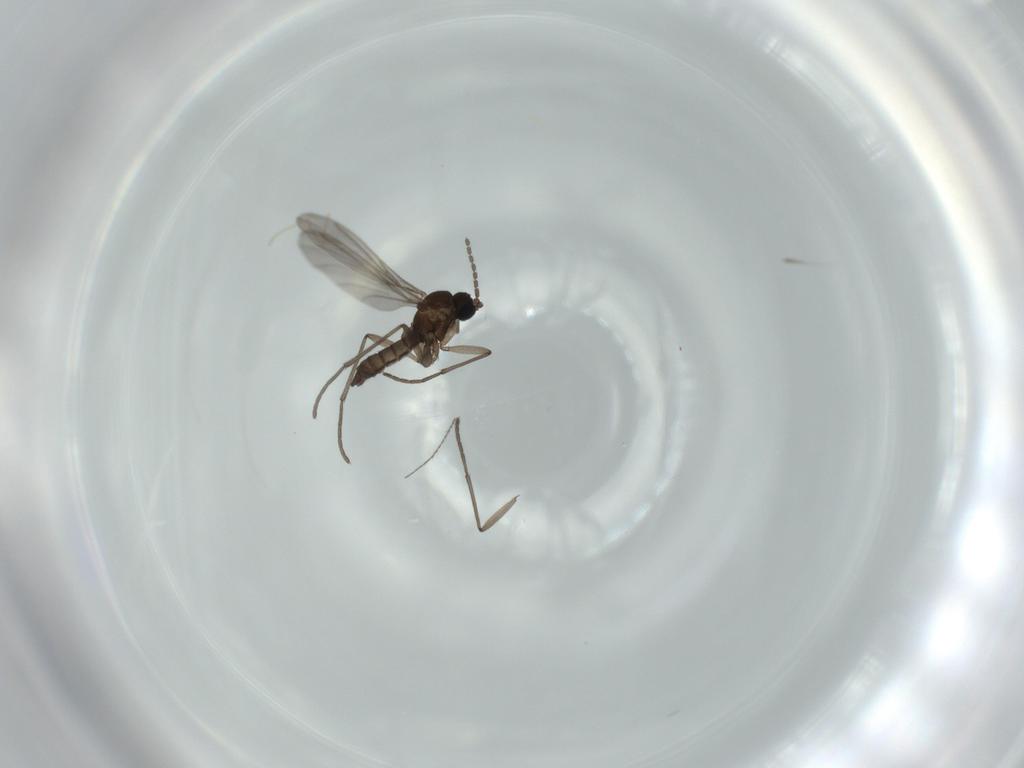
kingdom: Animalia
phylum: Arthropoda
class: Insecta
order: Diptera
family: Sciaridae
